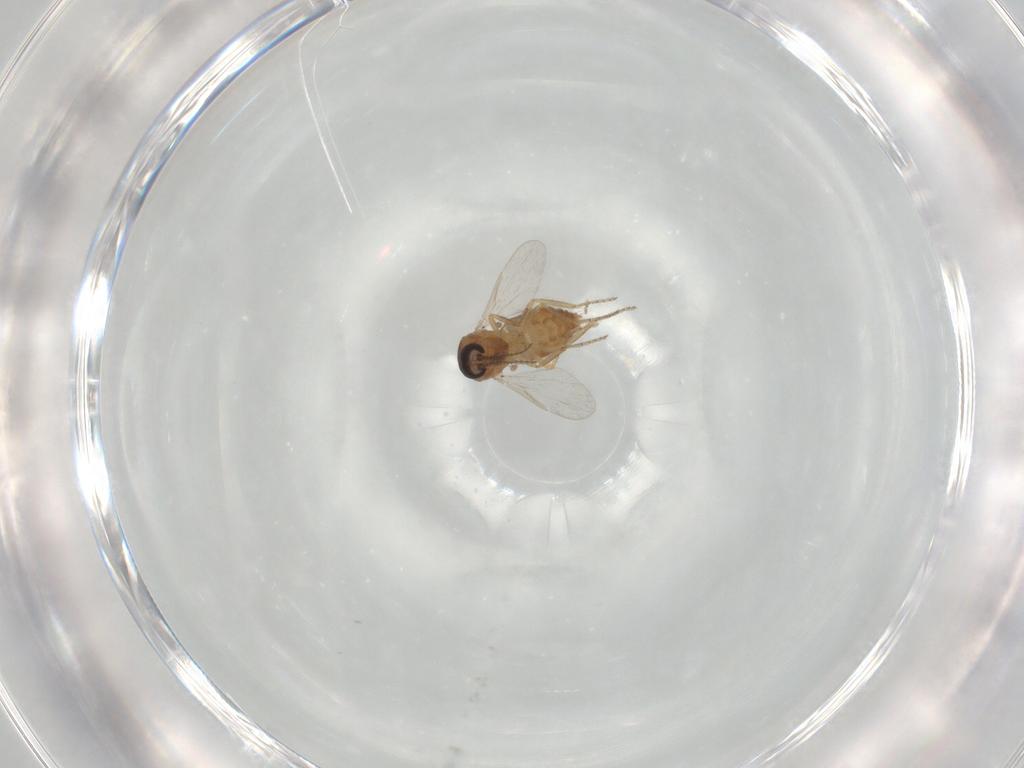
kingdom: Animalia
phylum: Arthropoda
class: Insecta
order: Diptera
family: Ceratopogonidae
